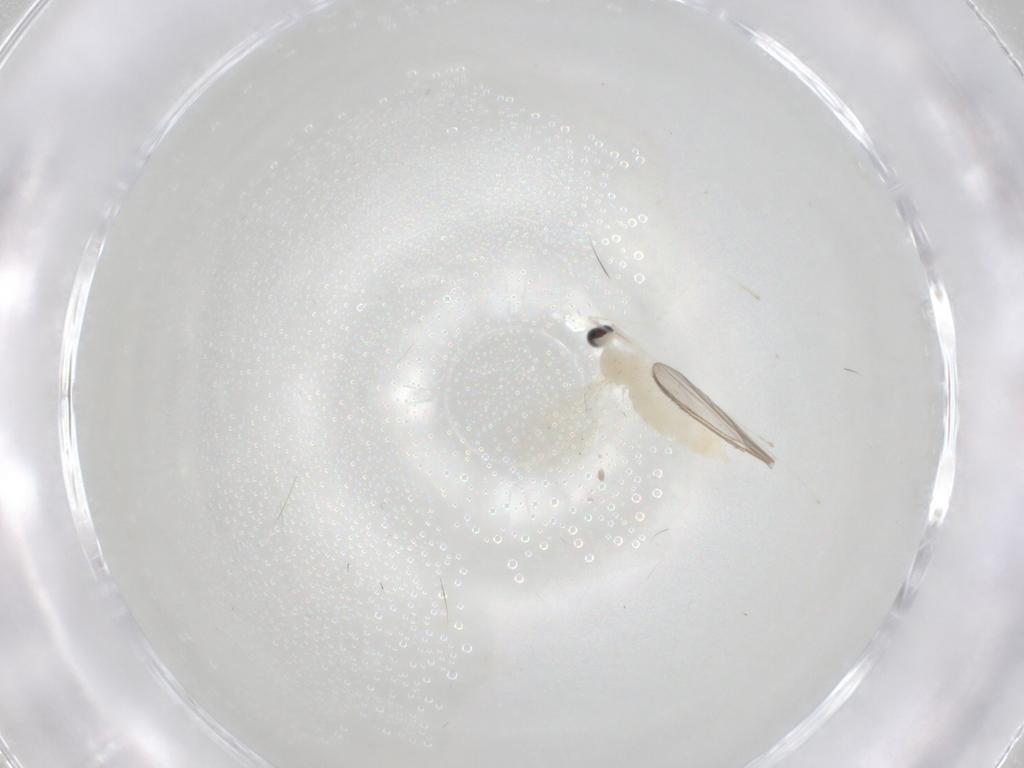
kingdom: Animalia
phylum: Arthropoda
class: Insecta
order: Diptera
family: Cecidomyiidae
